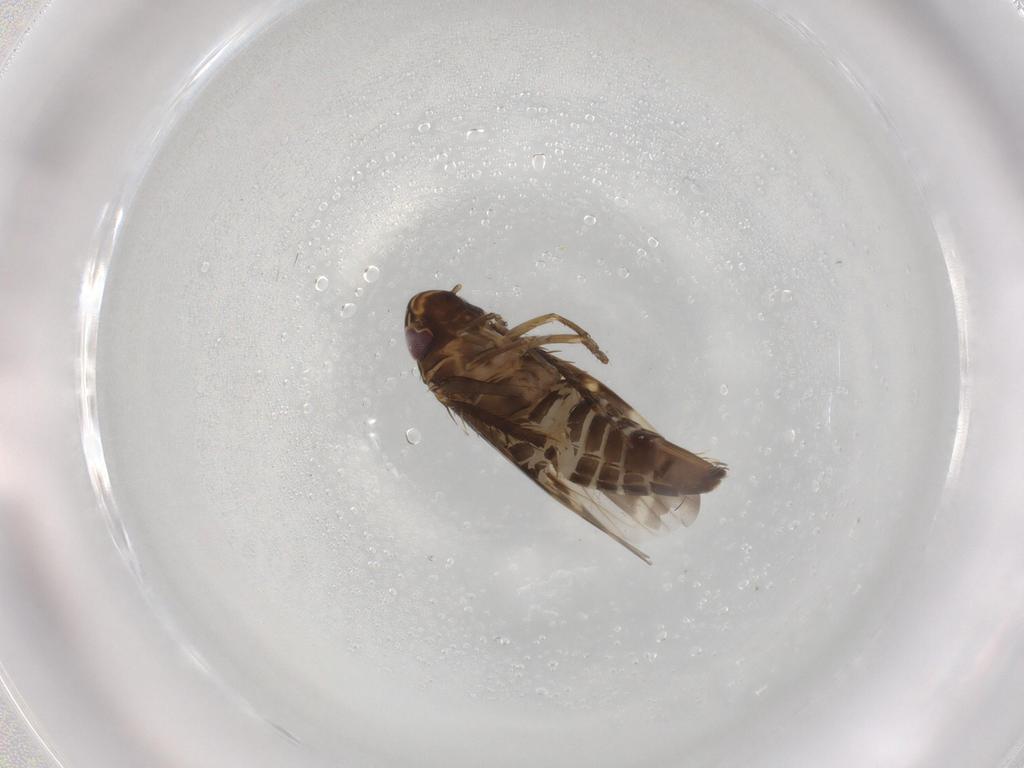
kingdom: Animalia
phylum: Arthropoda
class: Insecta
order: Hemiptera
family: Cicadellidae
